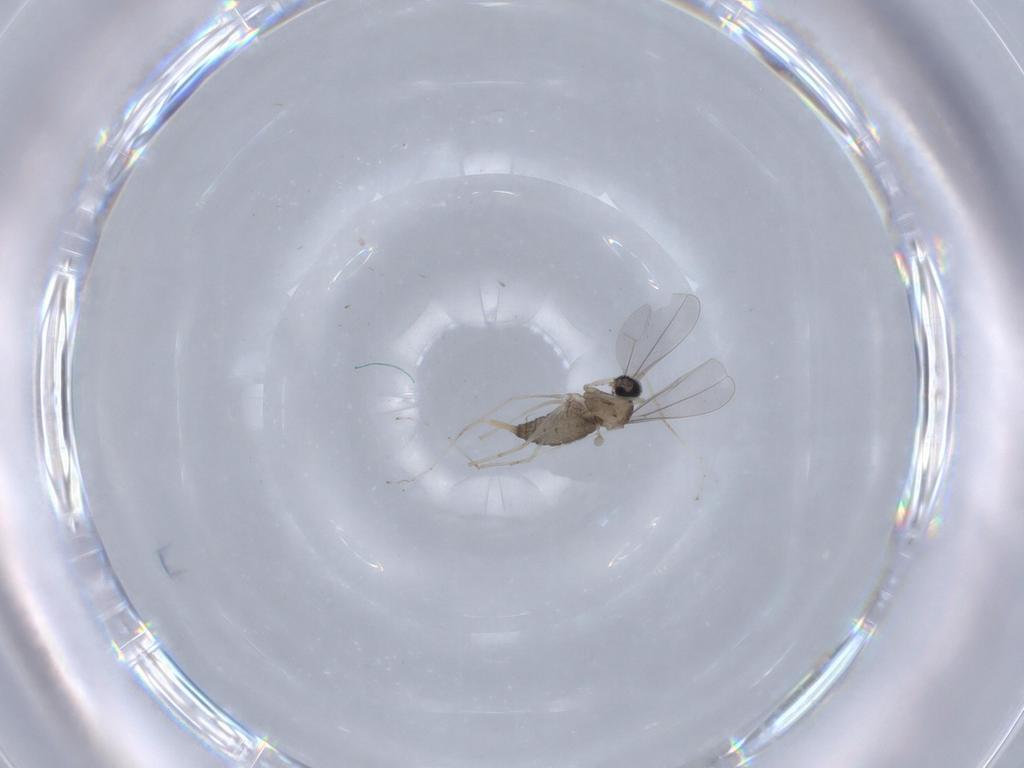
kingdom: Animalia
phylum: Arthropoda
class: Insecta
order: Diptera
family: Cecidomyiidae
